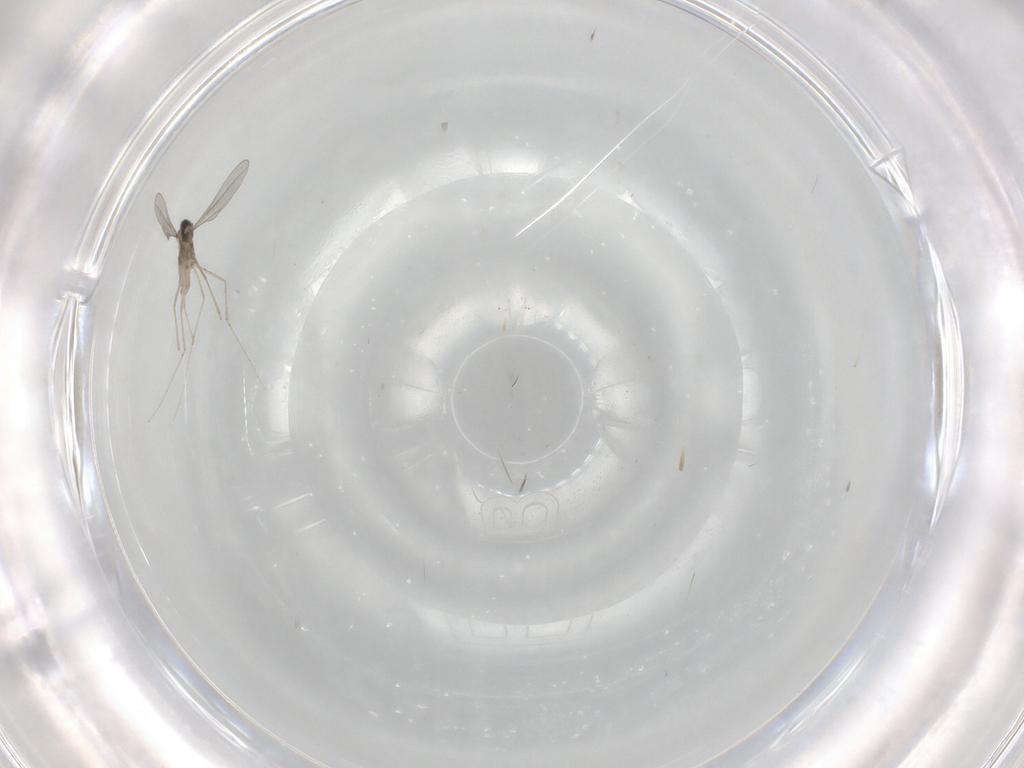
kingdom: Animalia
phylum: Arthropoda
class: Insecta
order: Diptera
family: Cecidomyiidae
